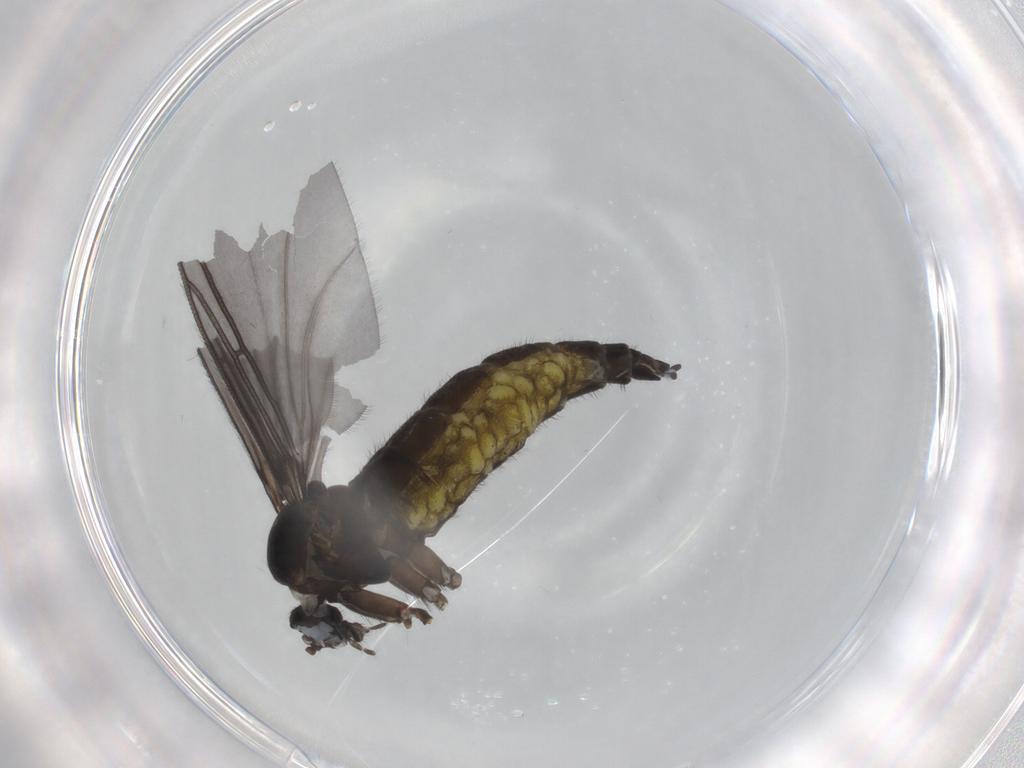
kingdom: Animalia
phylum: Arthropoda
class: Insecta
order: Diptera
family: Sciaridae
